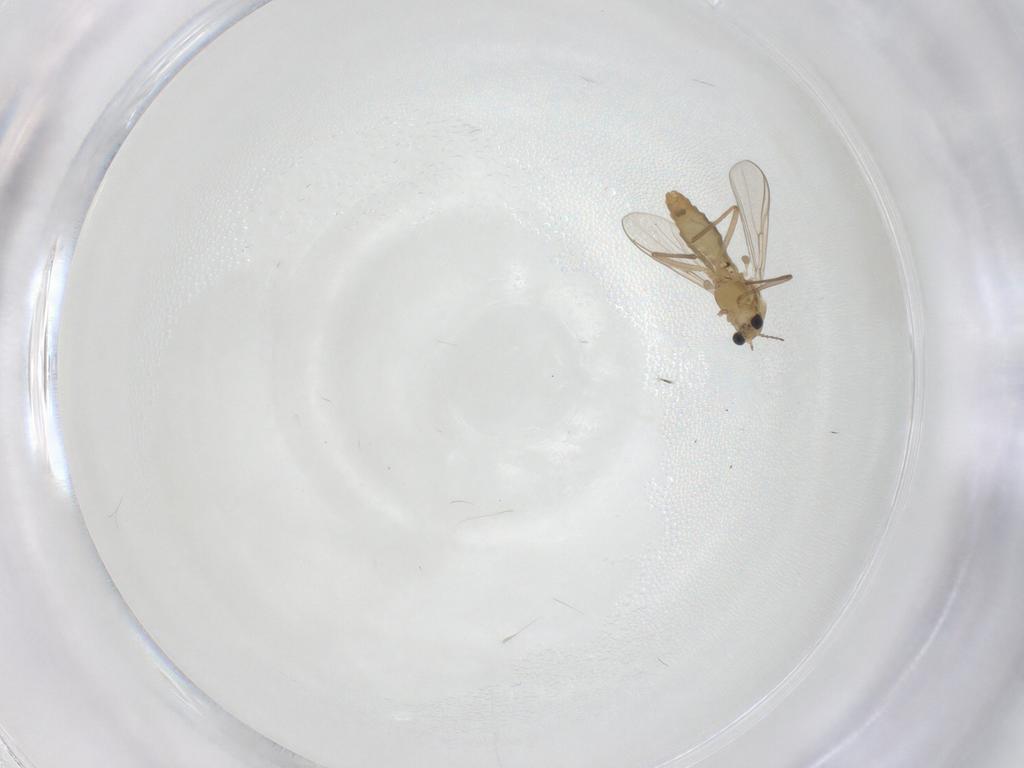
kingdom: Animalia
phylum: Arthropoda
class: Insecta
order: Diptera
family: Chironomidae
